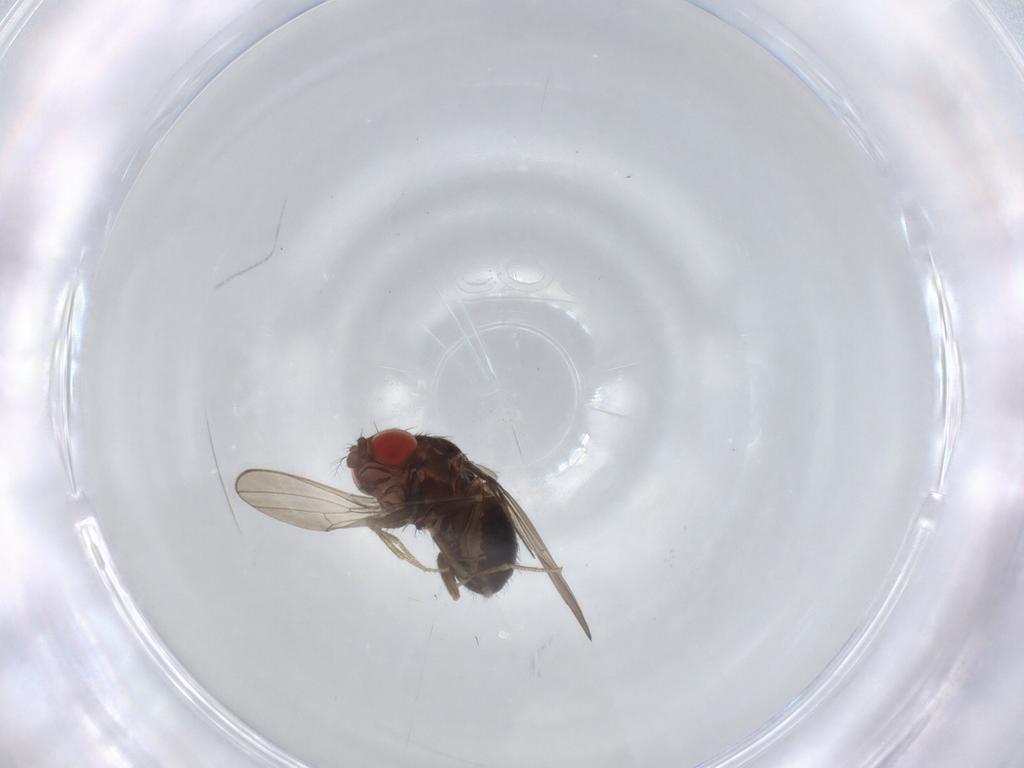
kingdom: Animalia
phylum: Arthropoda
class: Insecta
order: Diptera
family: Drosophilidae
